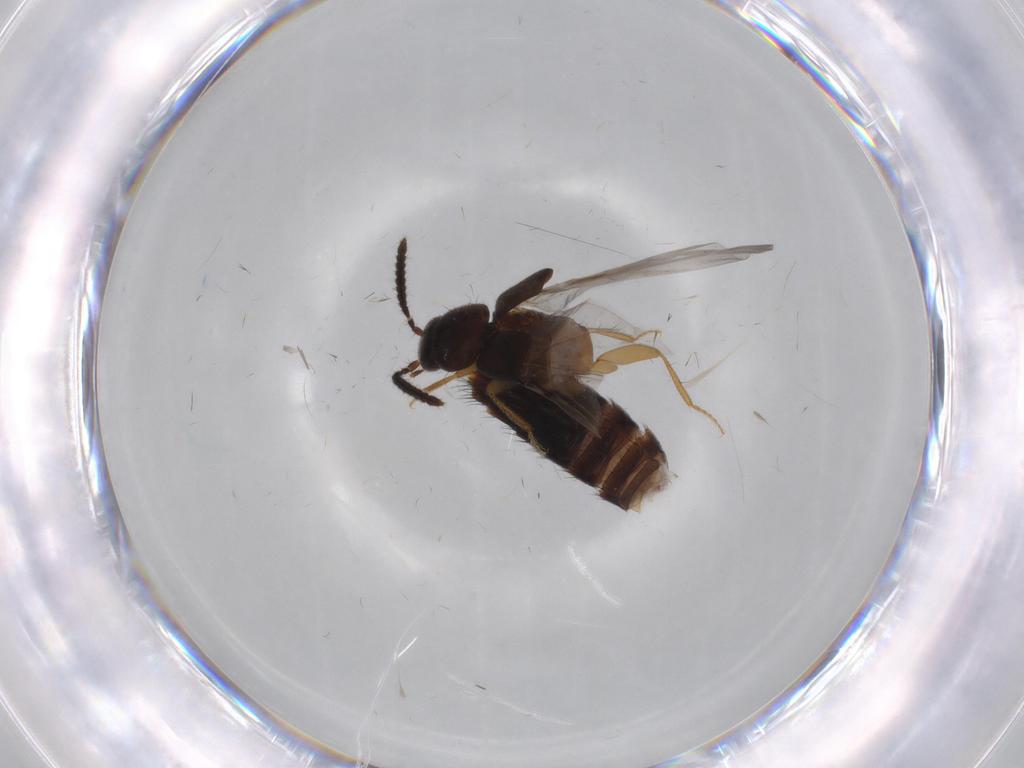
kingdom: Animalia
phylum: Arthropoda
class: Insecta
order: Coleoptera
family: Staphylinidae
